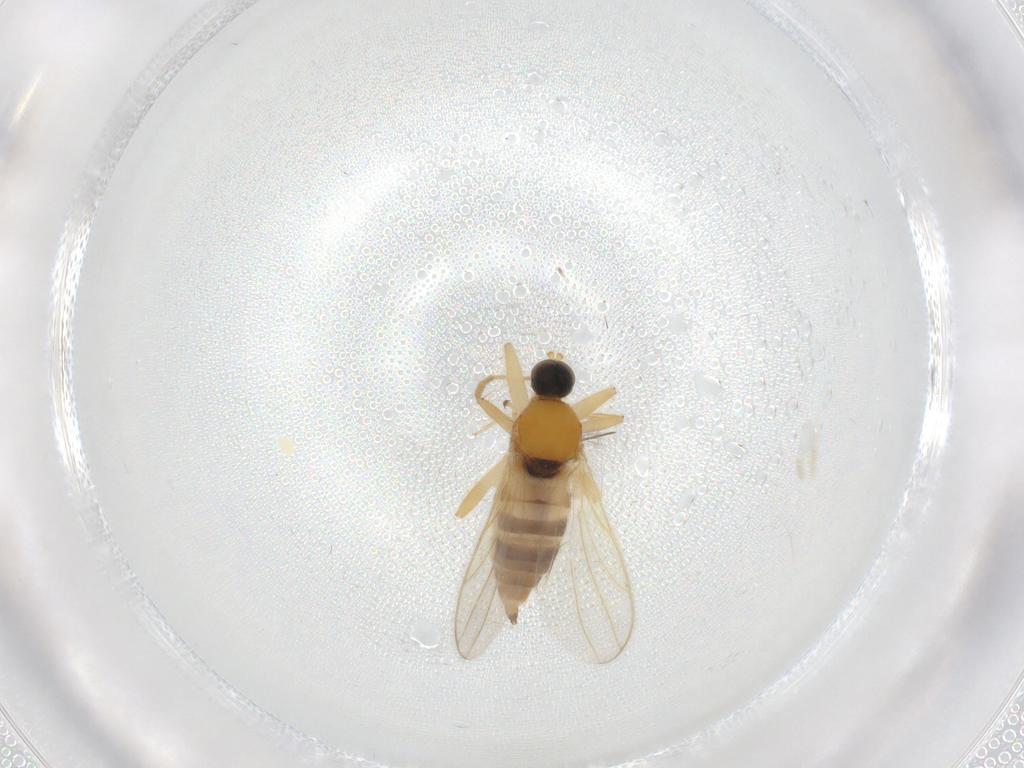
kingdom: Animalia
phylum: Arthropoda
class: Insecta
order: Diptera
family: Hybotidae
